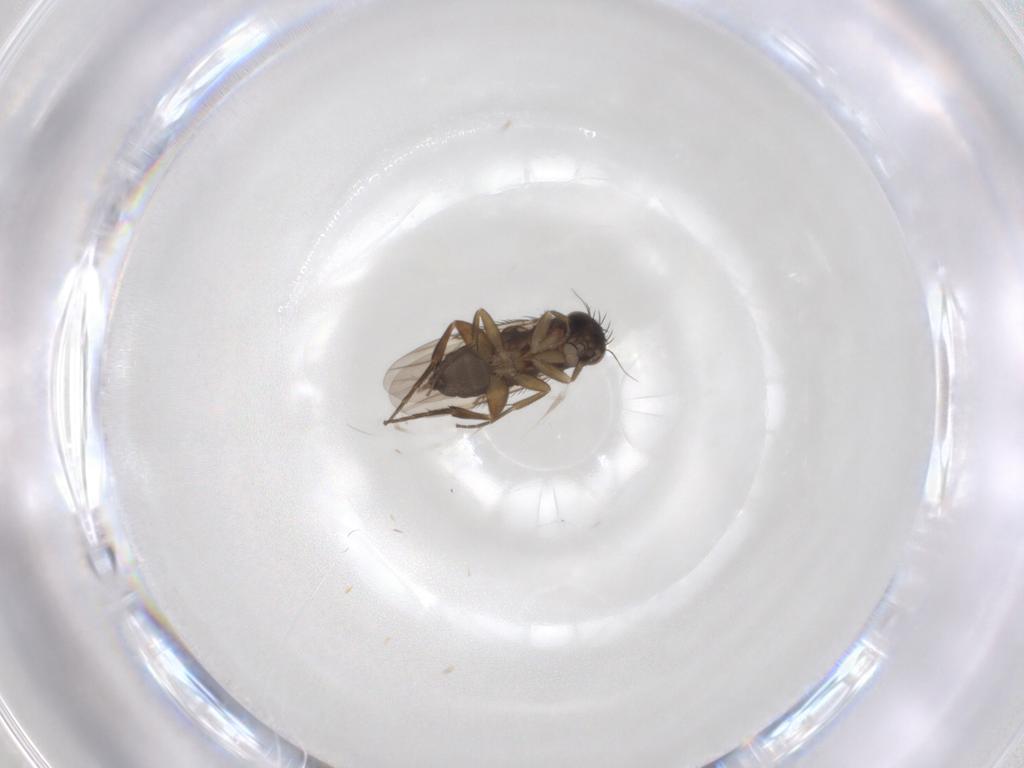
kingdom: Animalia
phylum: Arthropoda
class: Insecta
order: Diptera
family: Phoridae
